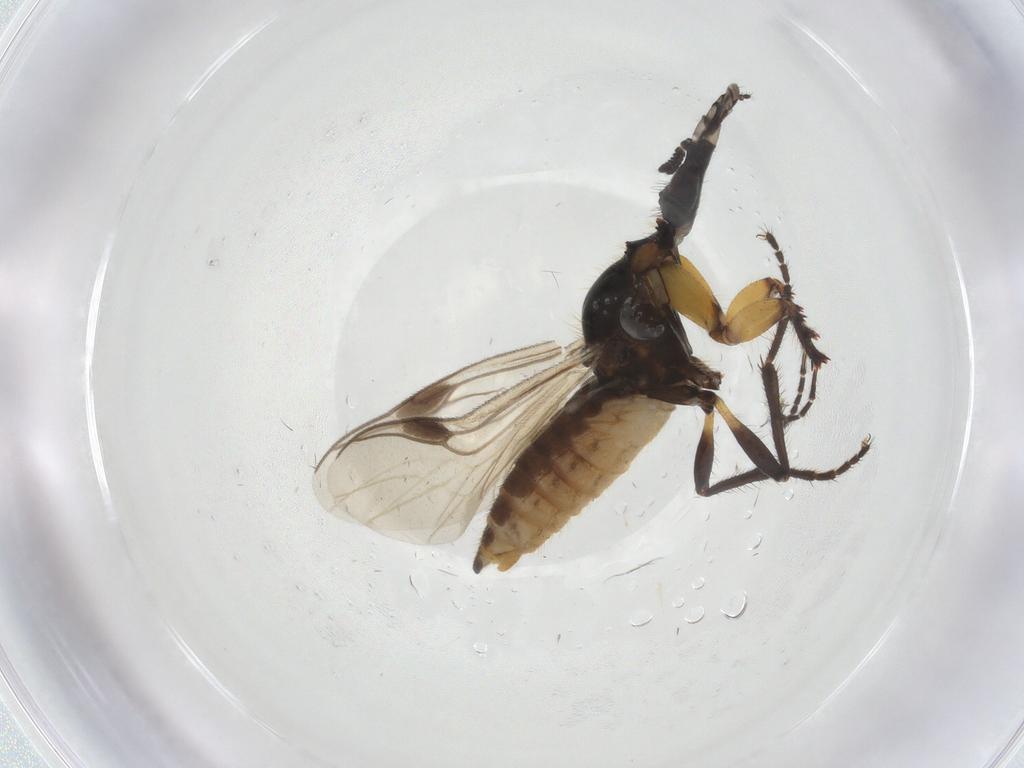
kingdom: Animalia
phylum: Arthropoda
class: Insecta
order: Diptera
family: Bibionidae
